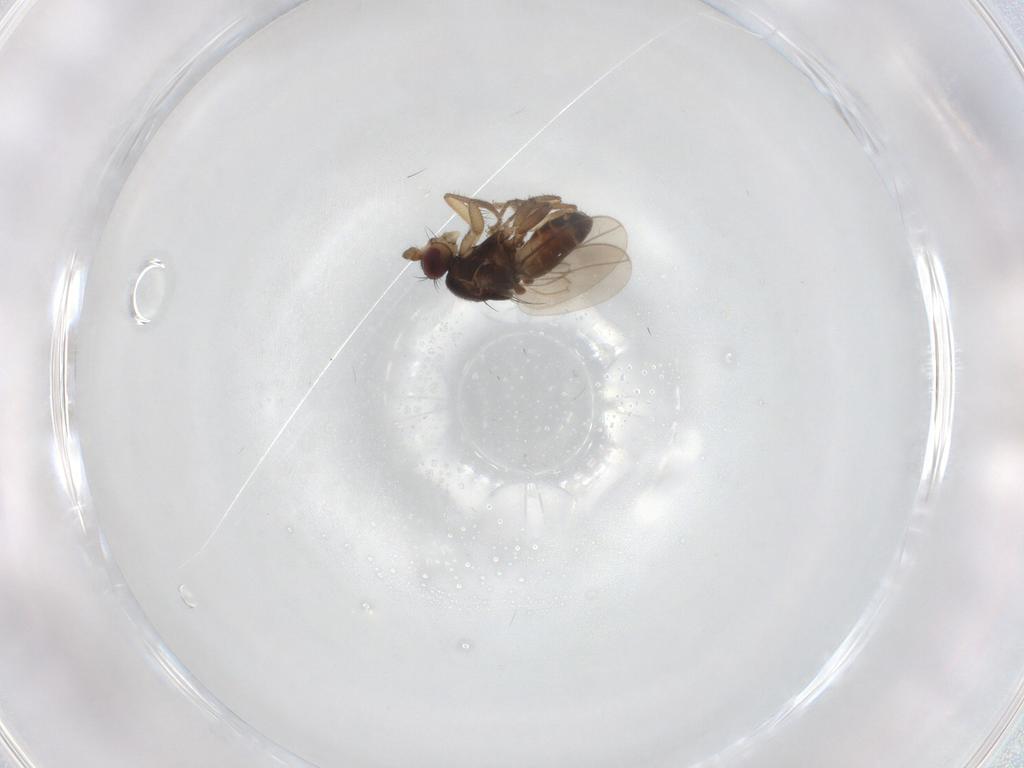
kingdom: Animalia
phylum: Arthropoda
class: Insecta
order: Diptera
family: Sphaeroceridae
